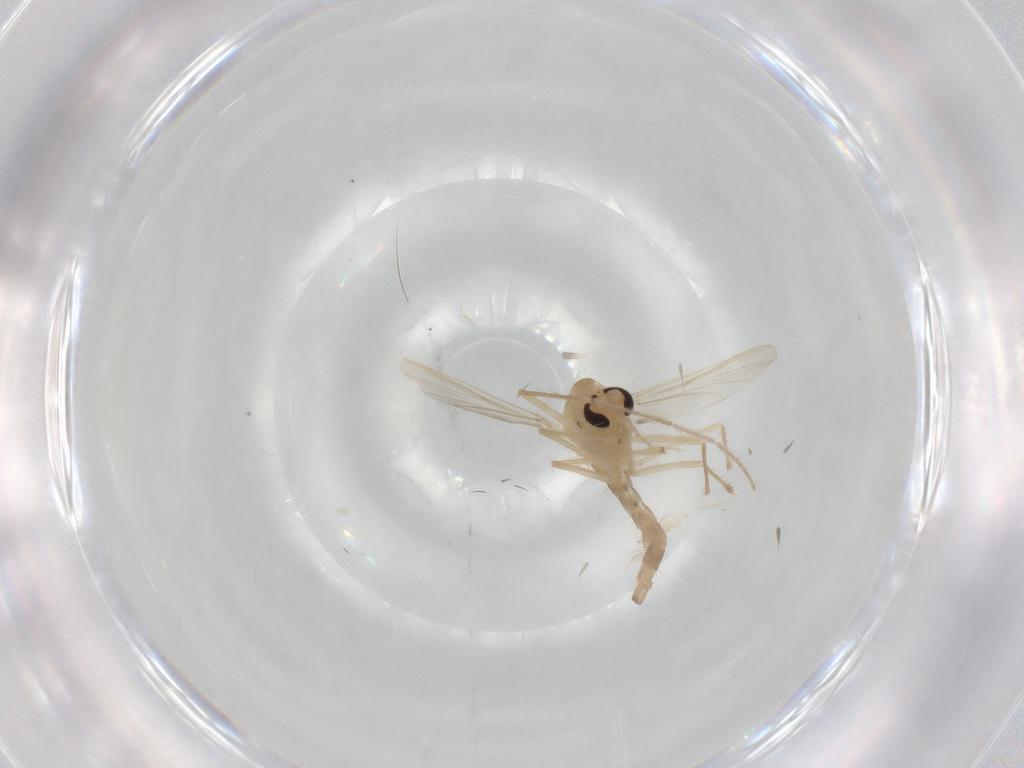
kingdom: Animalia
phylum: Arthropoda
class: Insecta
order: Diptera
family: Chironomidae
